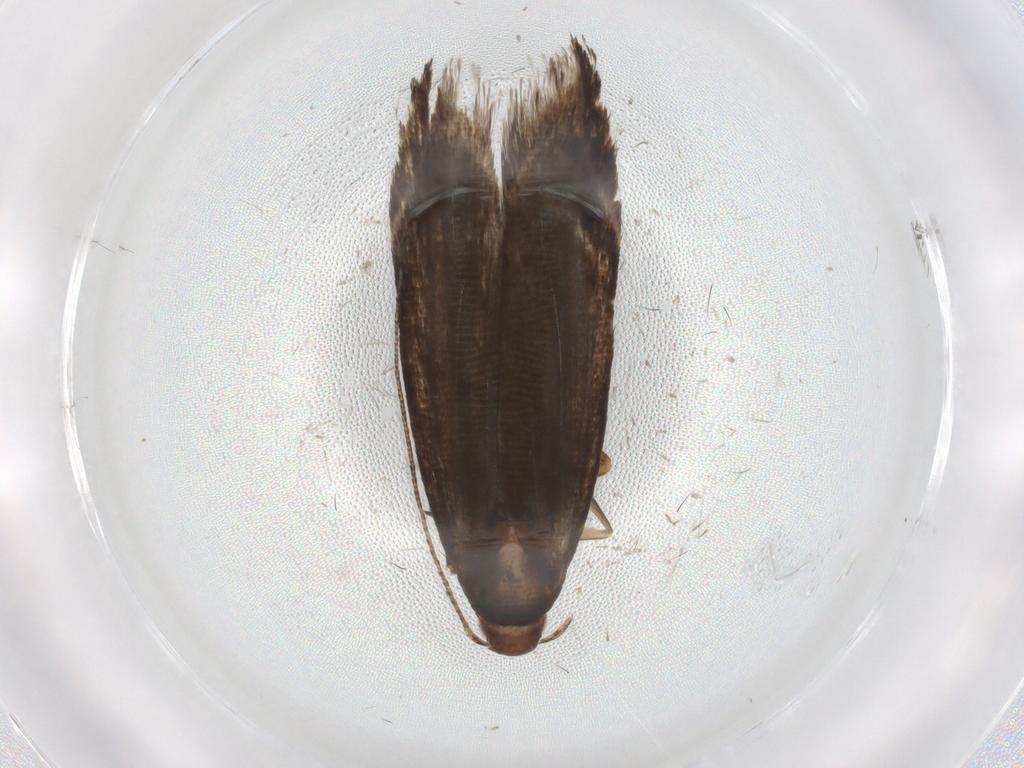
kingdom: Animalia
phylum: Arthropoda
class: Insecta
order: Lepidoptera
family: Gelechiidae
